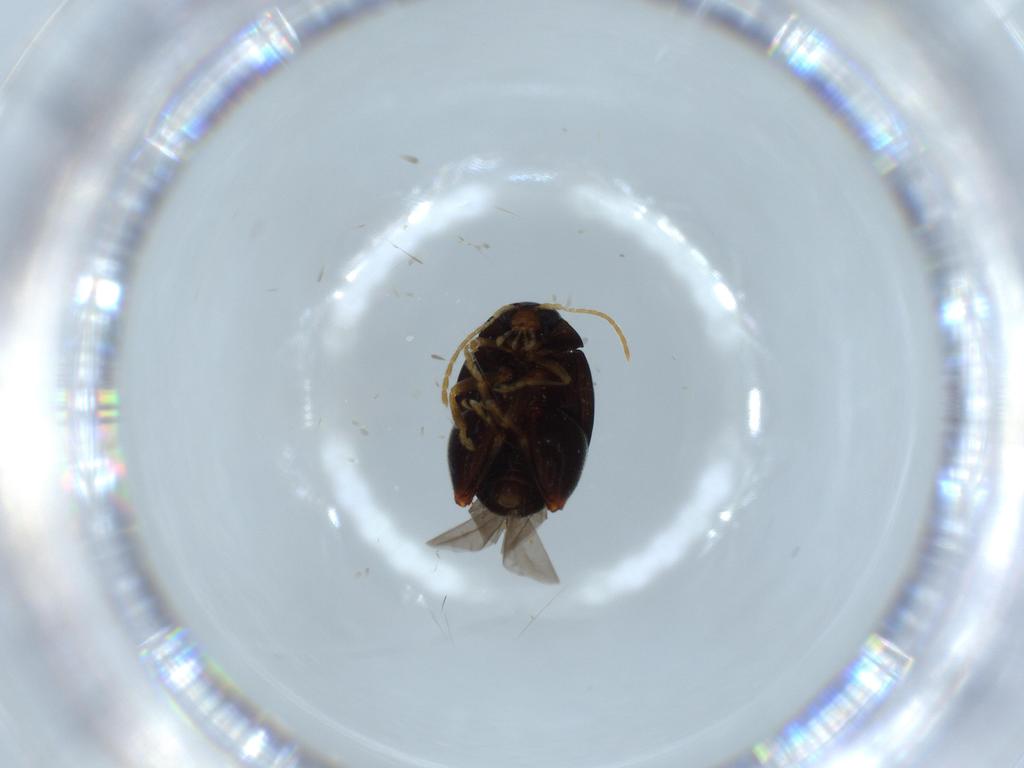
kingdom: Animalia
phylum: Arthropoda
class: Insecta
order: Coleoptera
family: Chrysomelidae
